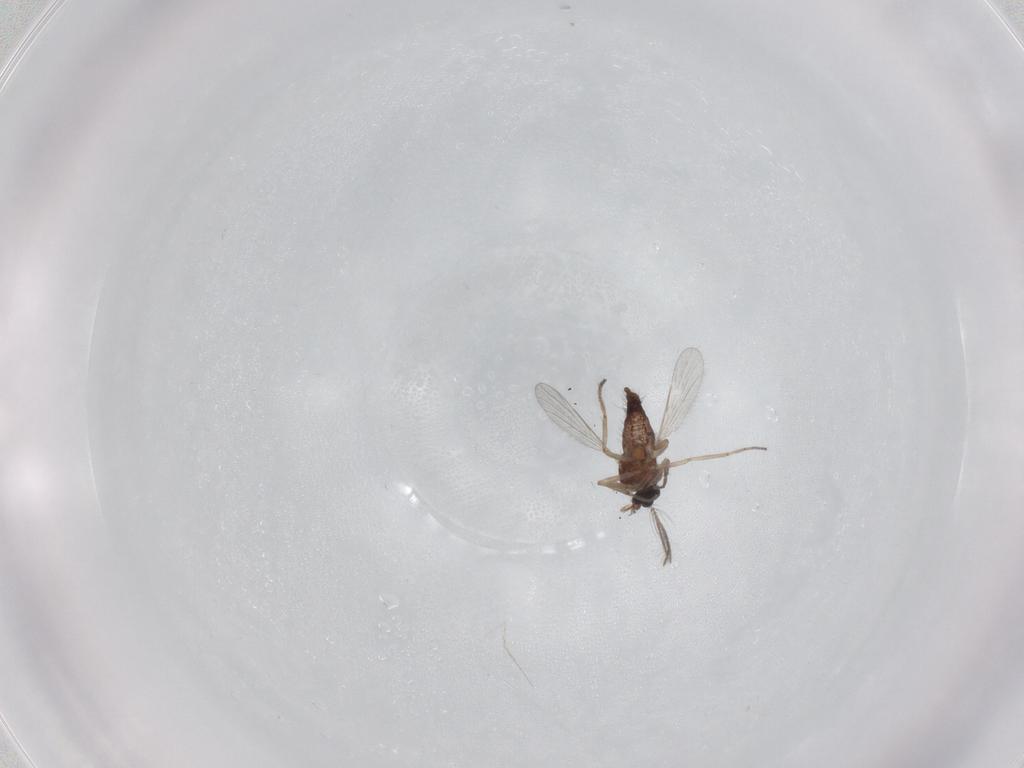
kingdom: Animalia
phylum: Arthropoda
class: Insecta
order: Diptera
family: Ceratopogonidae
